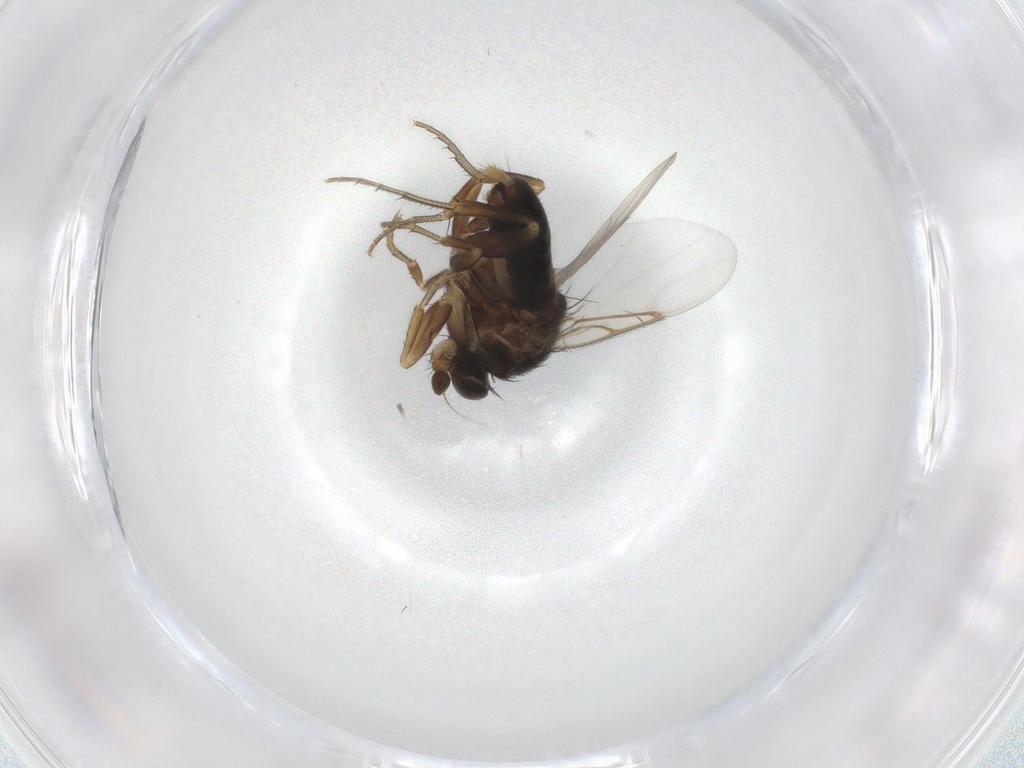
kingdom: Animalia
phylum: Arthropoda
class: Insecta
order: Diptera
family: Phoridae
